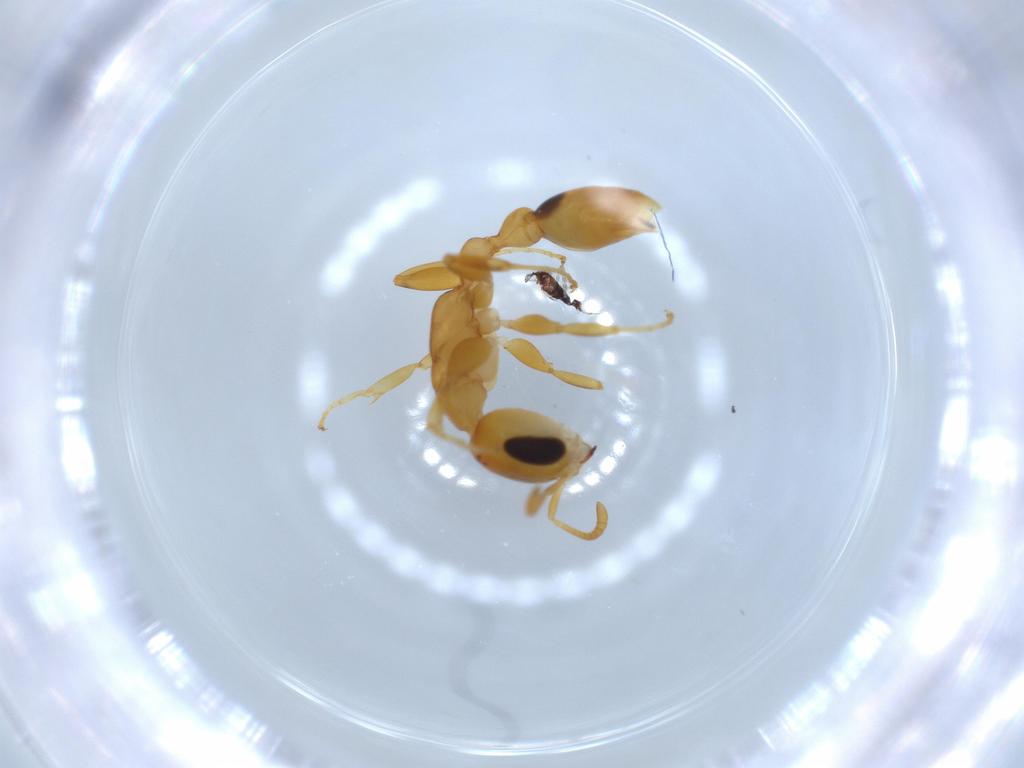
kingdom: Animalia
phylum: Arthropoda
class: Insecta
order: Hymenoptera
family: Formicidae
